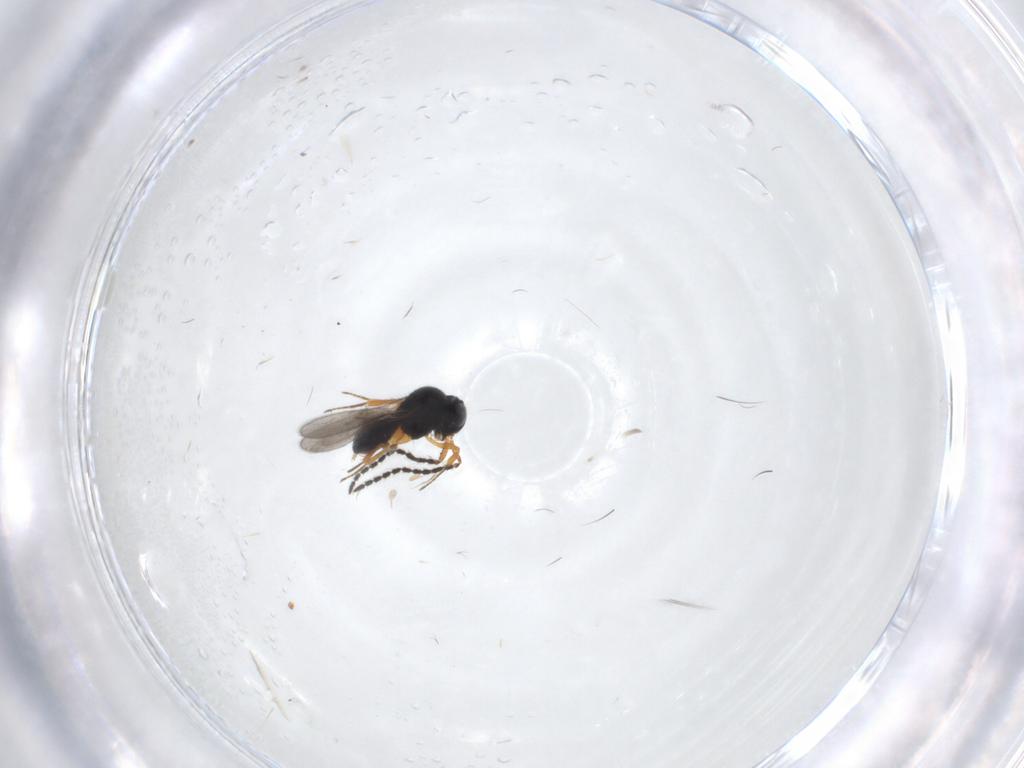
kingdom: Animalia
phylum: Arthropoda
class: Insecta
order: Hymenoptera
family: Scelionidae
